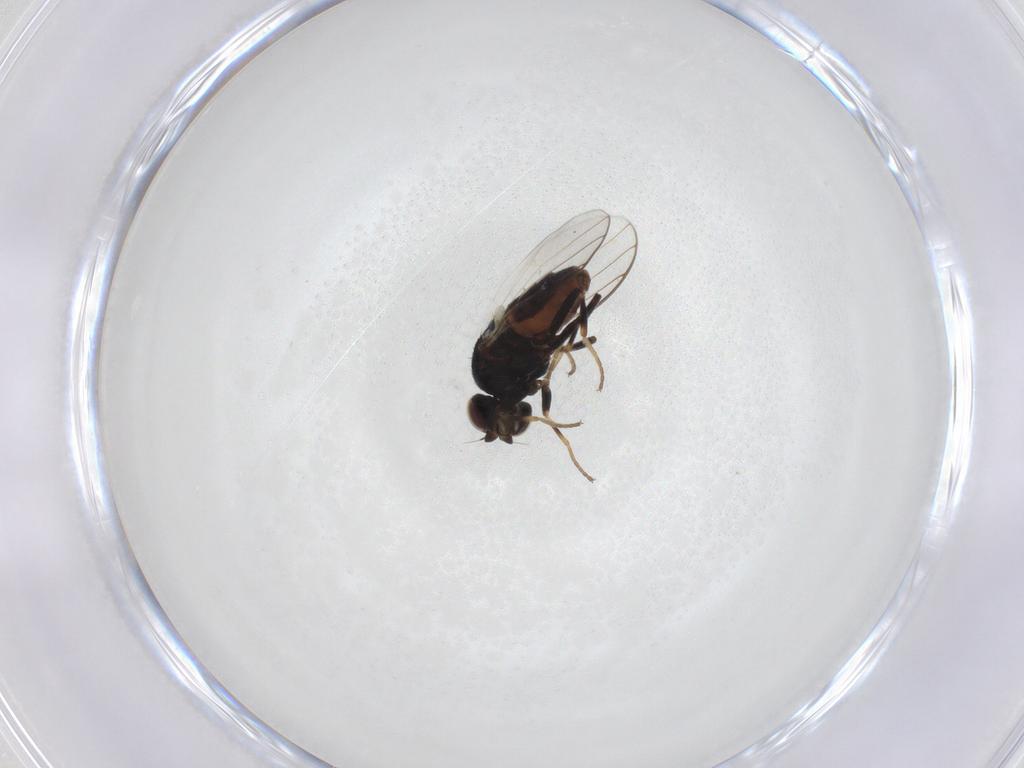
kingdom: Animalia
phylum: Arthropoda
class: Insecta
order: Diptera
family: Chloropidae
